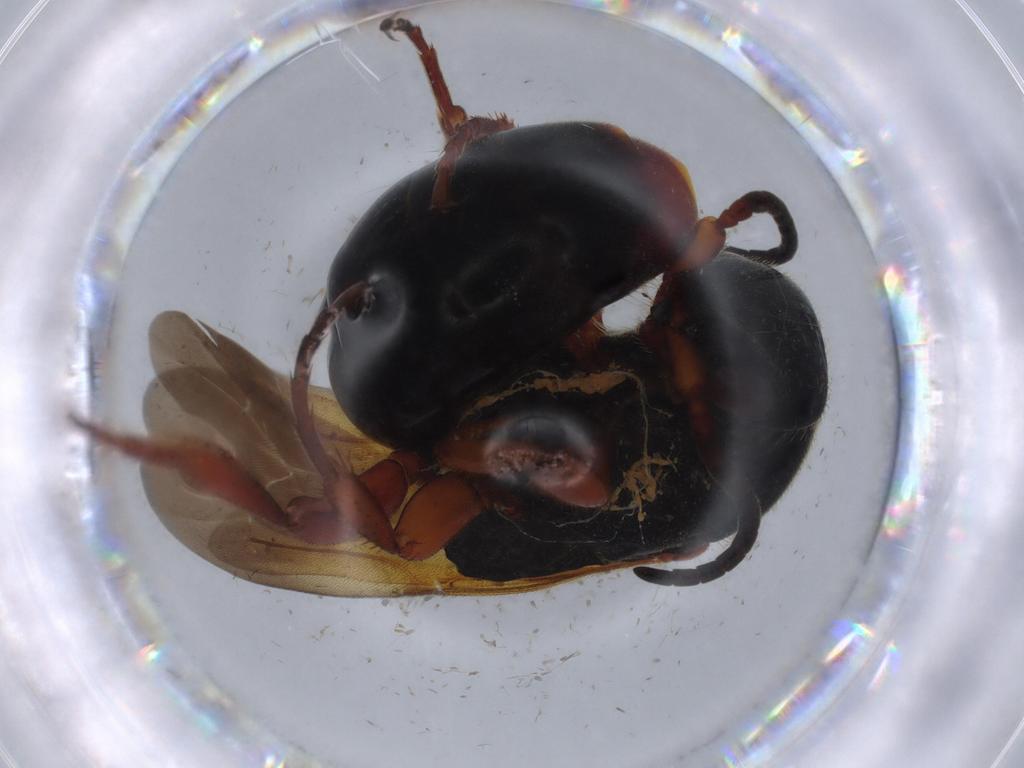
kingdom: Animalia
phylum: Arthropoda
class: Insecta
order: Hymenoptera
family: Bethylidae
